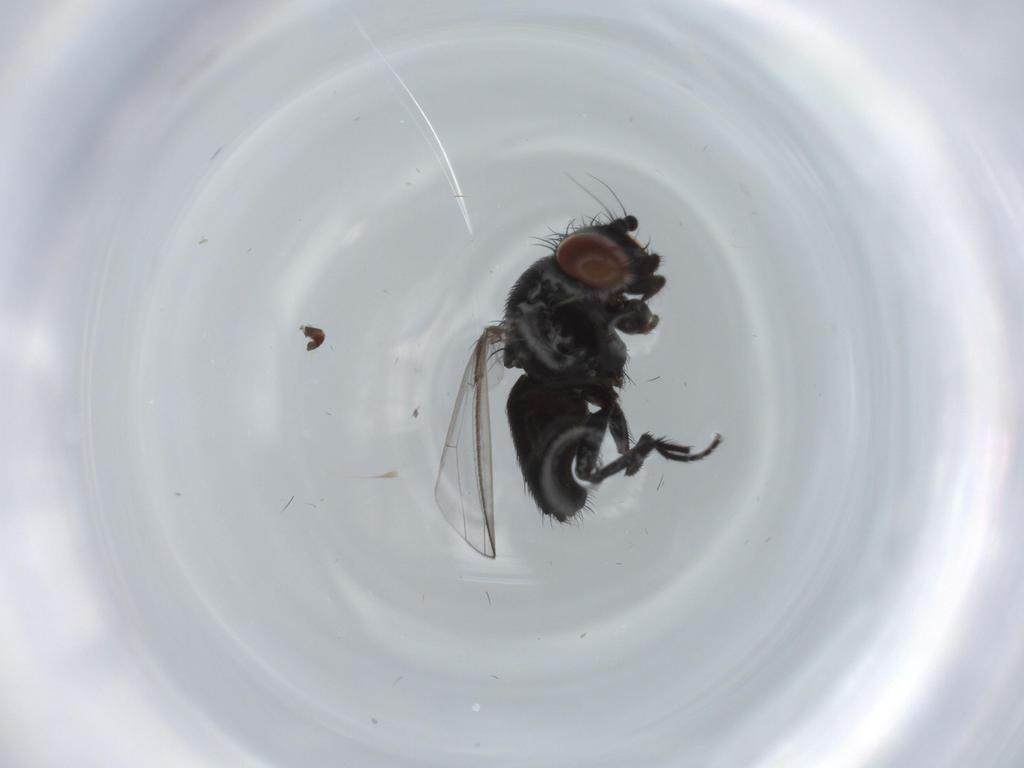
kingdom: Animalia
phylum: Arthropoda
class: Insecta
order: Diptera
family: Milichiidae
